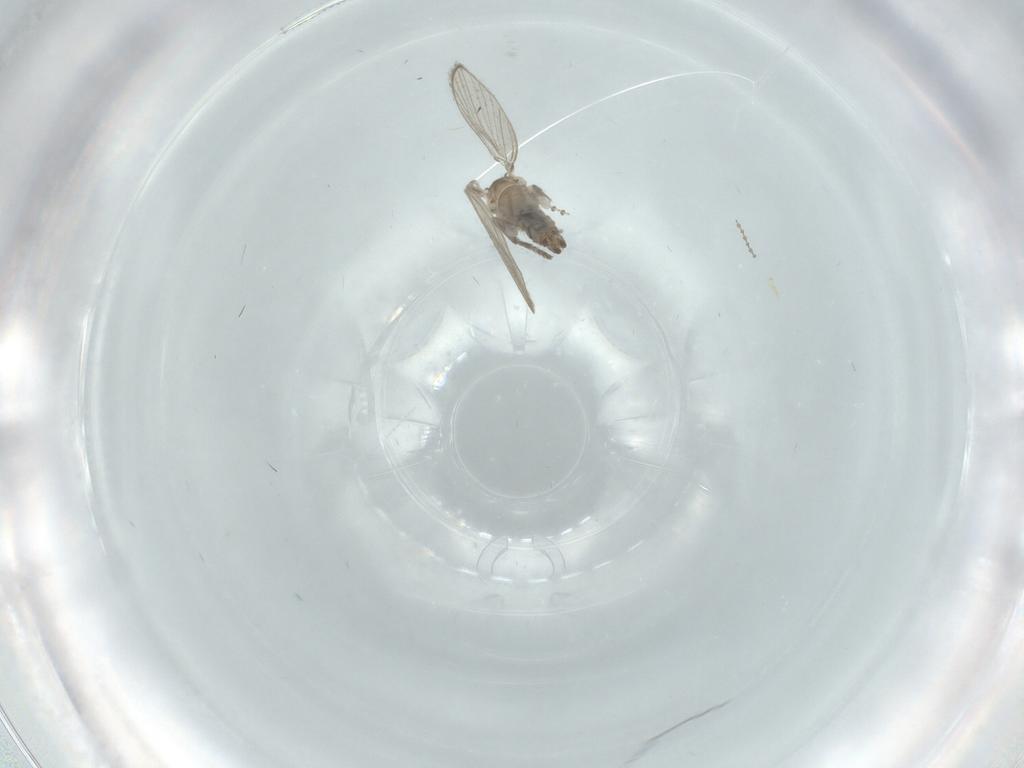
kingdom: Animalia
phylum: Arthropoda
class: Insecta
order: Diptera
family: Psychodidae
